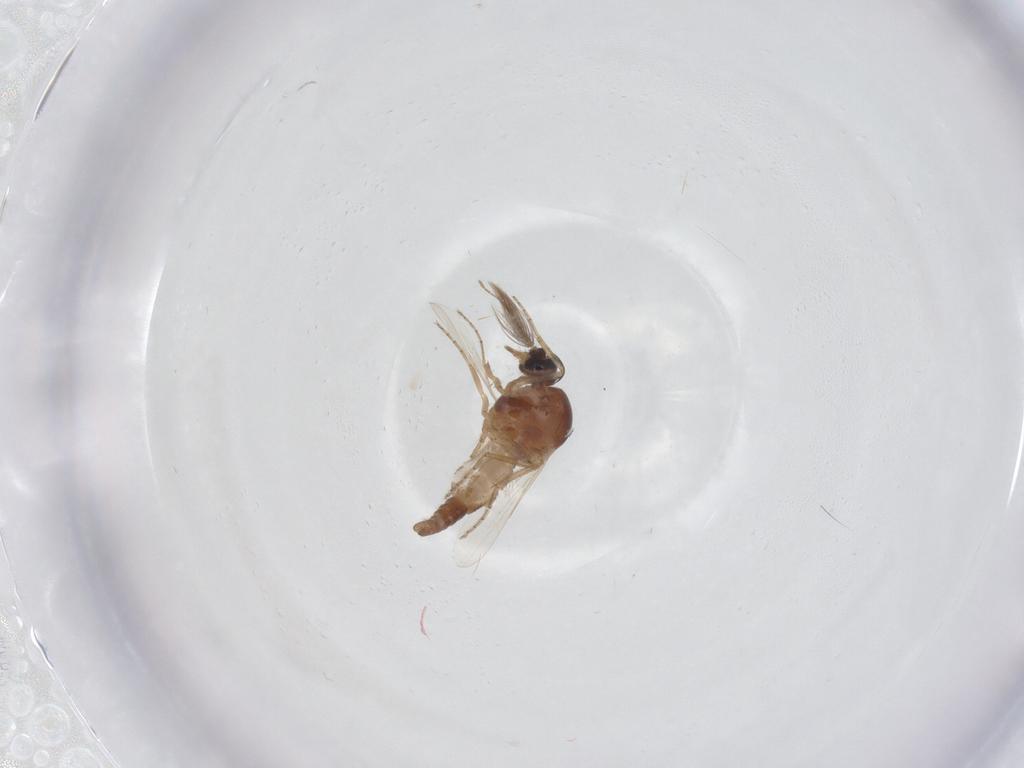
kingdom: Animalia
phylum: Arthropoda
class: Insecta
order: Diptera
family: Ceratopogonidae
